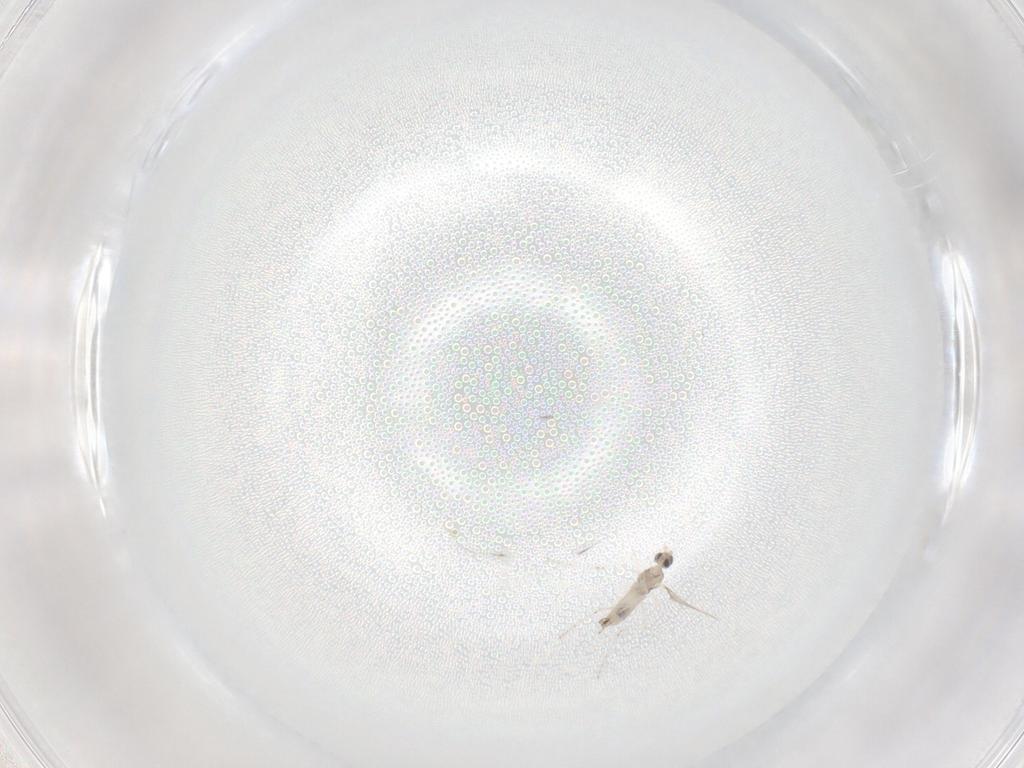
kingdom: Animalia
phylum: Arthropoda
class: Insecta
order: Diptera
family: Cecidomyiidae
